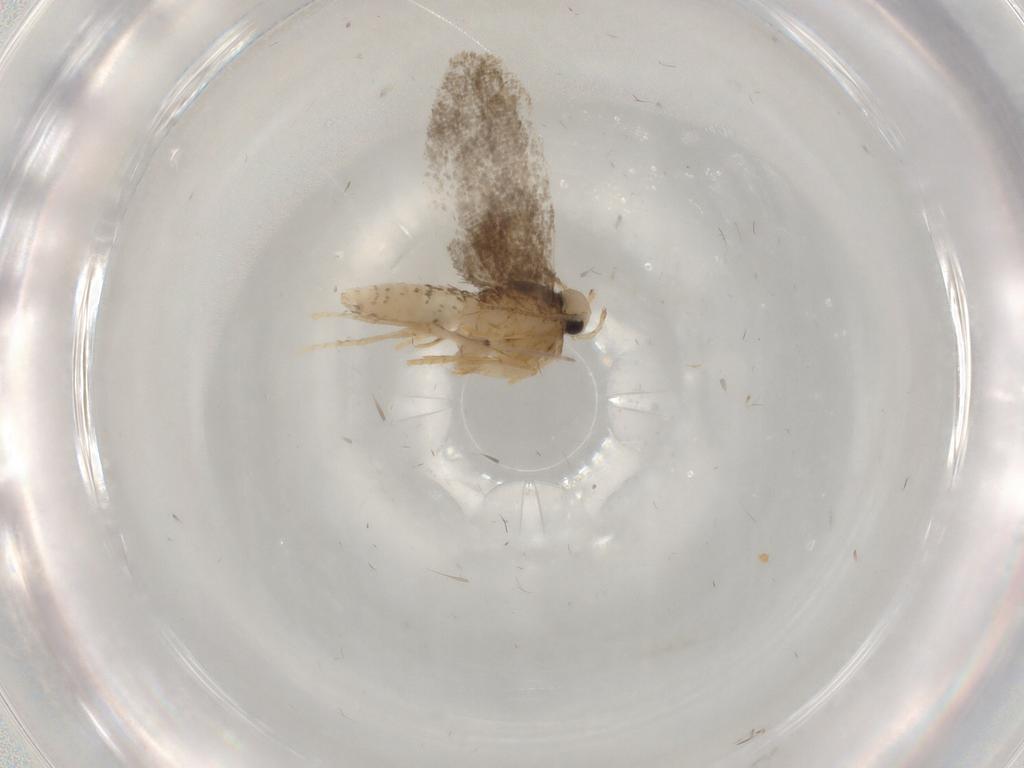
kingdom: Animalia
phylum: Arthropoda
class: Insecta
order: Lepidoptera
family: Psychidae
